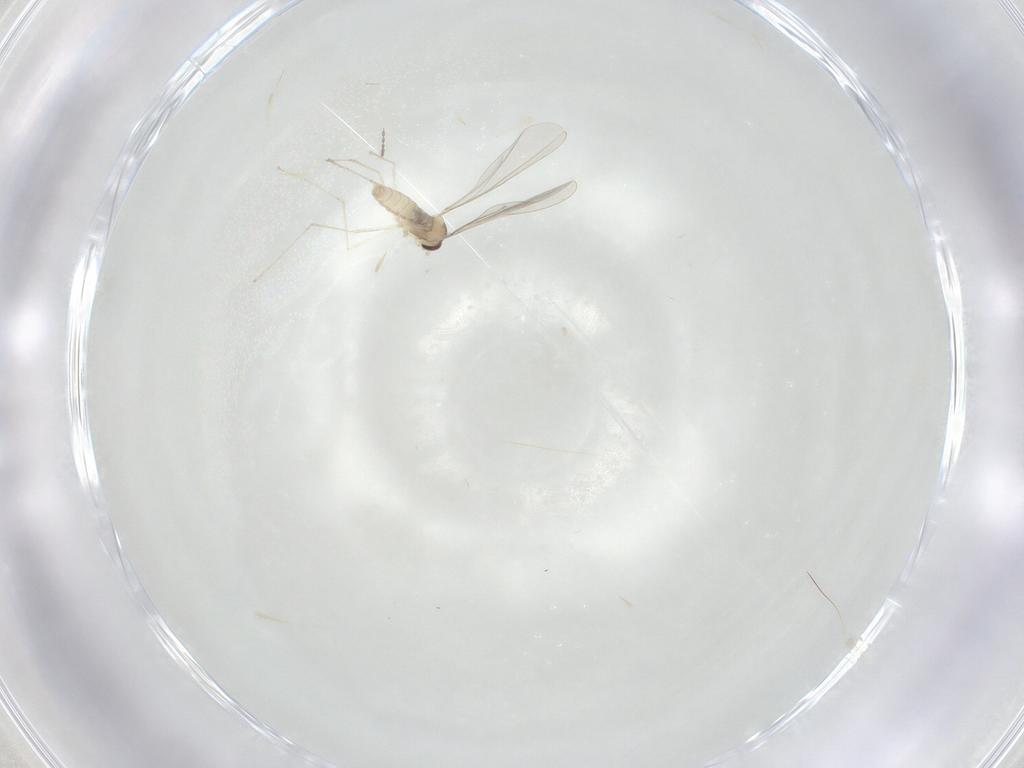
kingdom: Animalia
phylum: Arthropoda
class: Insecta
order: Diptera
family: Cecidomyiidae
